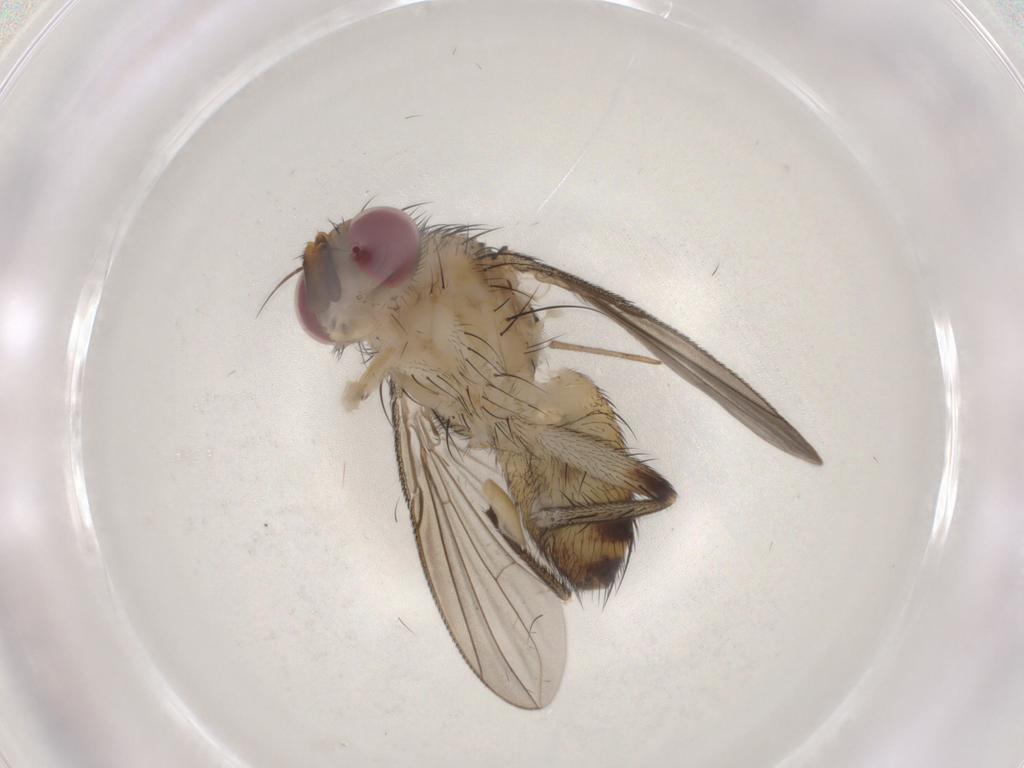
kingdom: Animalia
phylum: Arthropoda
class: Insecta
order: Diptera
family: Tachinidae
